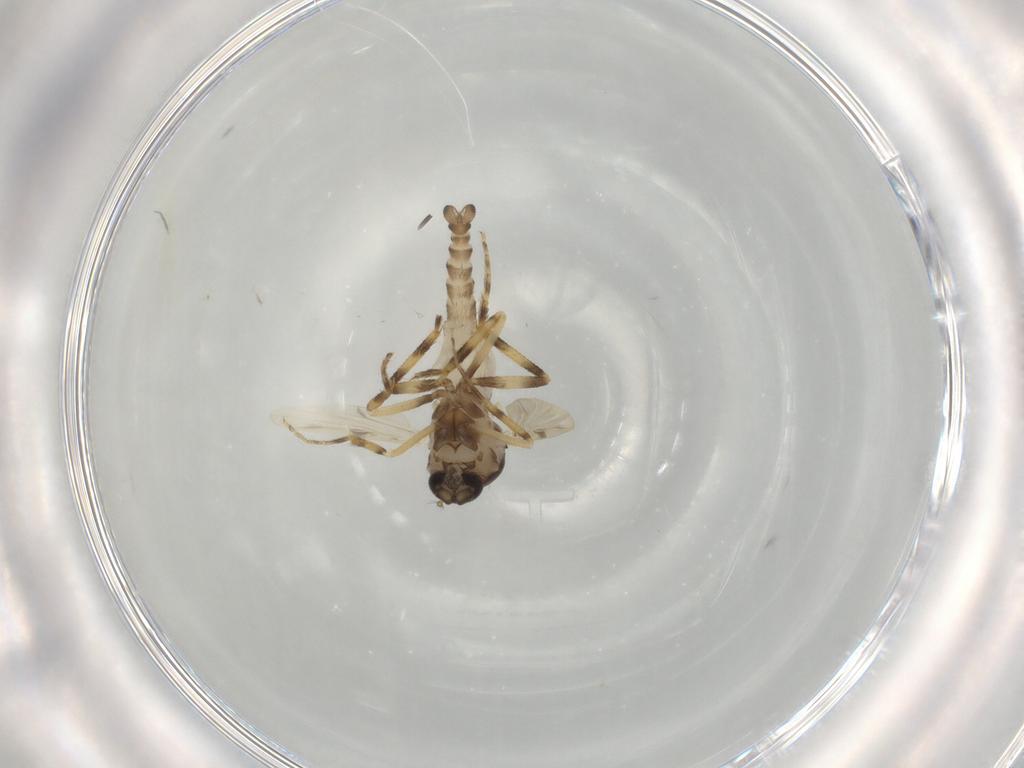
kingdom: Animalia
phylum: Arthropoda
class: Insecta
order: Diptera
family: Ceratopogonidae
